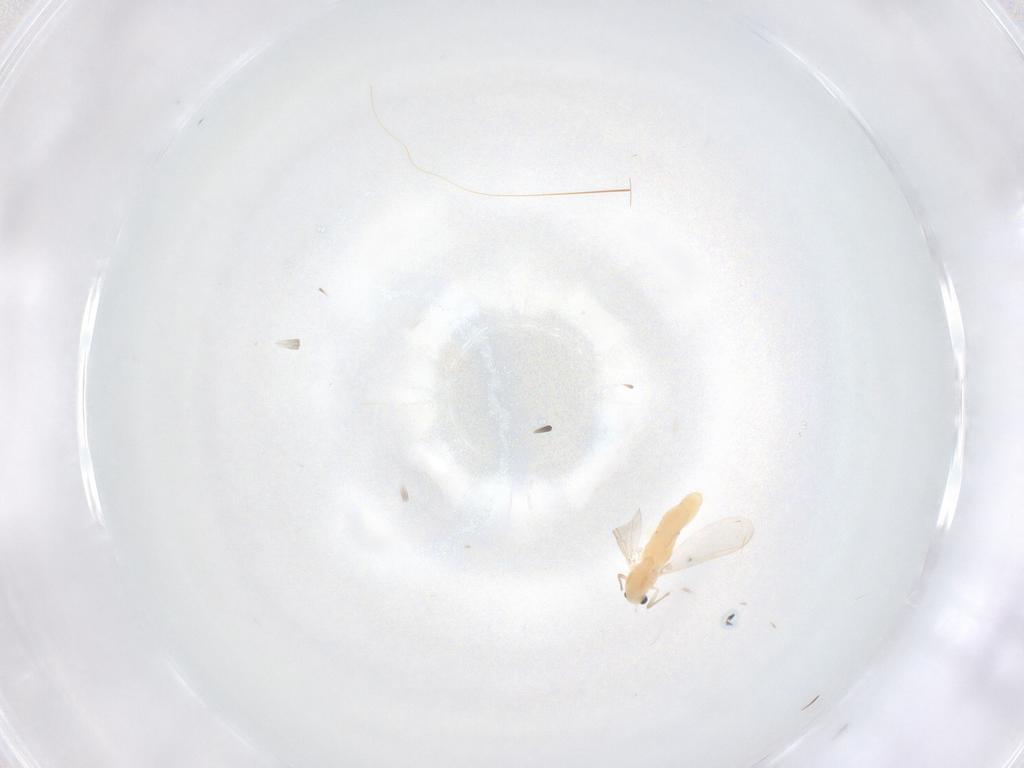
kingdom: Animalia
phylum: Arthropoda
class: Insecta
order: Diptera
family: Chironomidae
